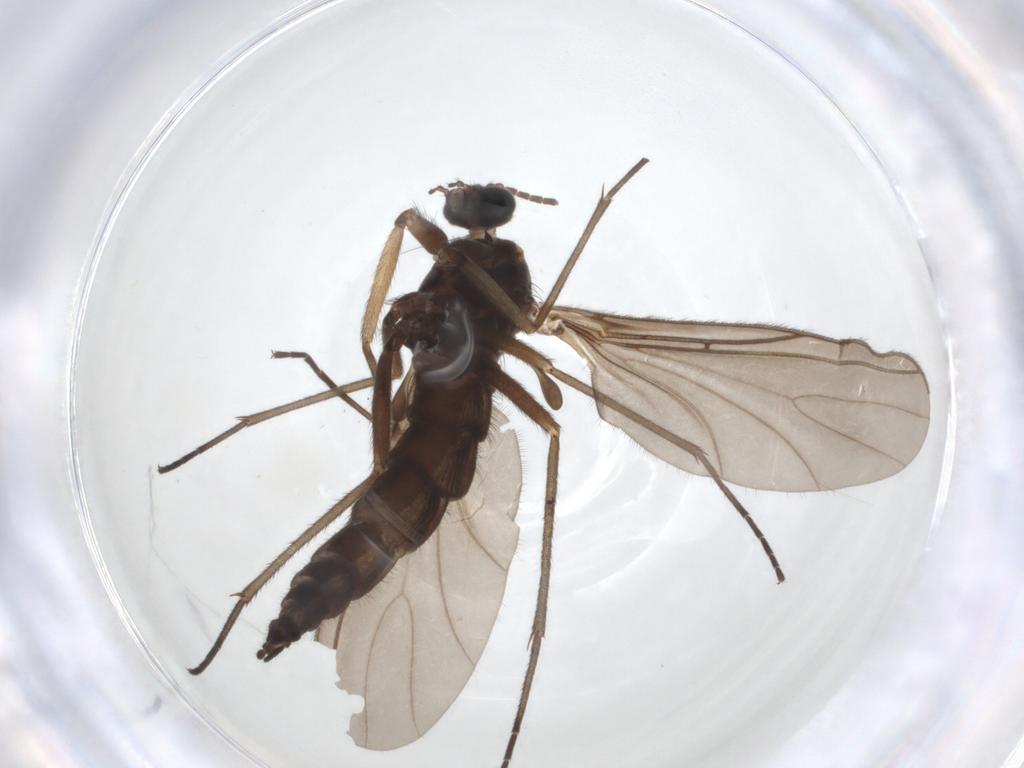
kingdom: Animalia
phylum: Arthropoda
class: Insecta
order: Diptera
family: Sciaridae
